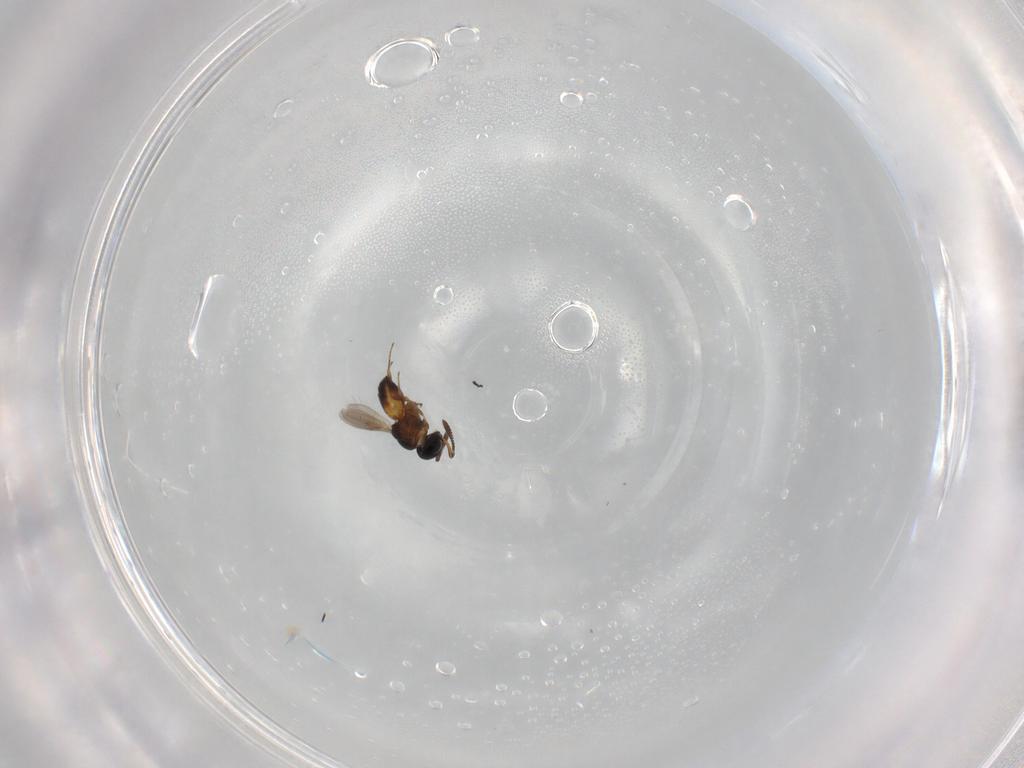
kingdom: Animalia
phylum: Arthropoda
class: Insecta
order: Hymenoptera
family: Scelionidae
